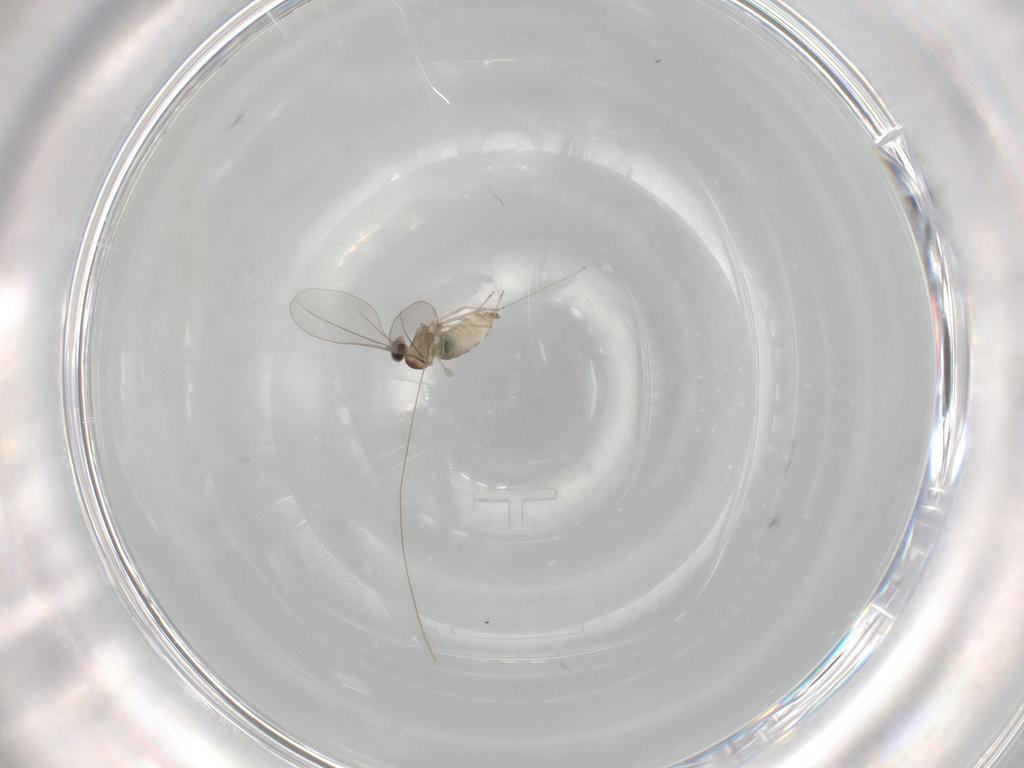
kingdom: Animalia
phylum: Arthropoda
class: Insecta
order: Diptera
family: Cecidomyiidae
